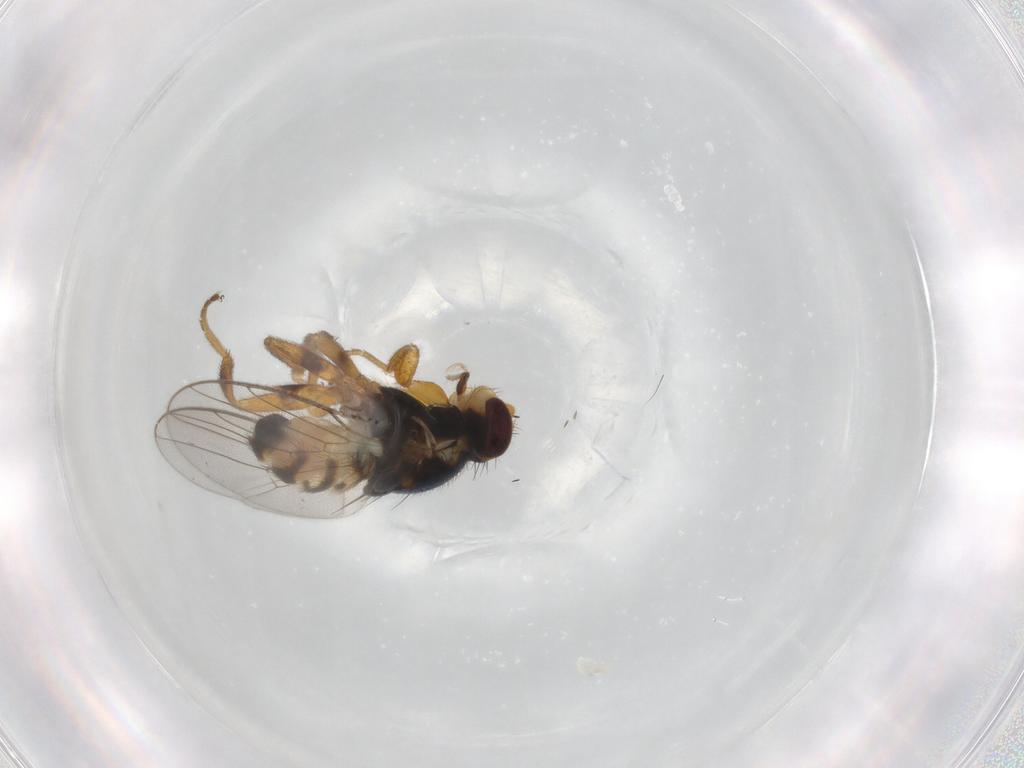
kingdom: Animalia
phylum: Arthropoda
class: Insecta
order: Diptera
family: Chloropidae
